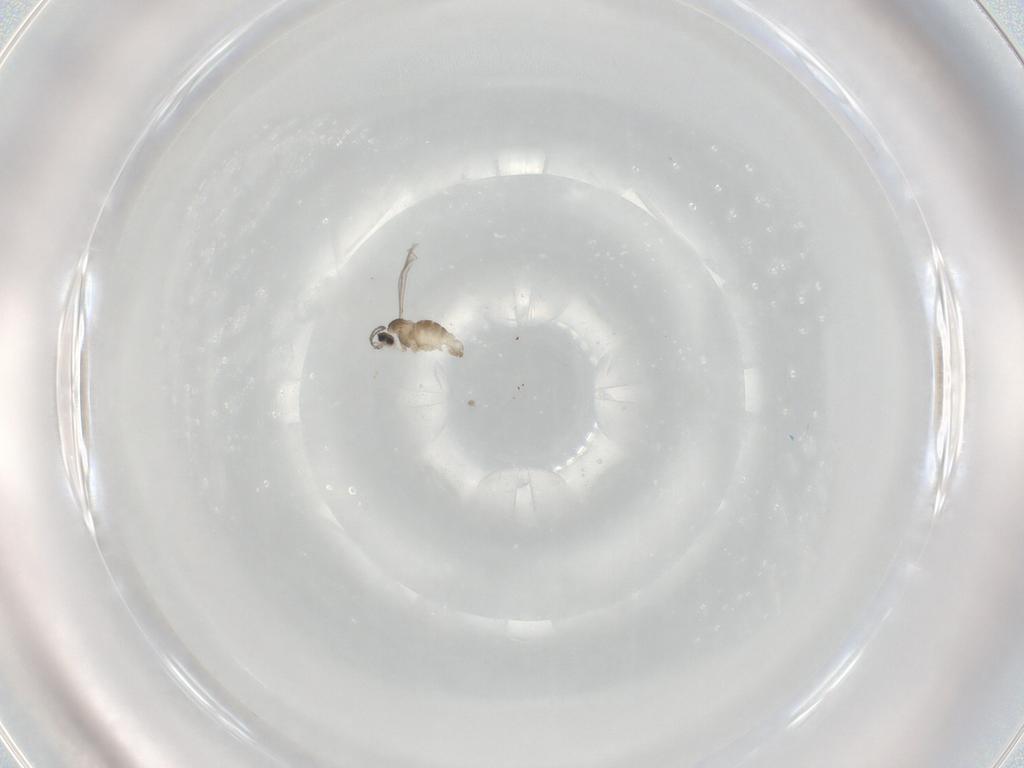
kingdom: Animalia
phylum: Arthropoda
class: Insecta
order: Diptera
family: Cecidomyiidae
